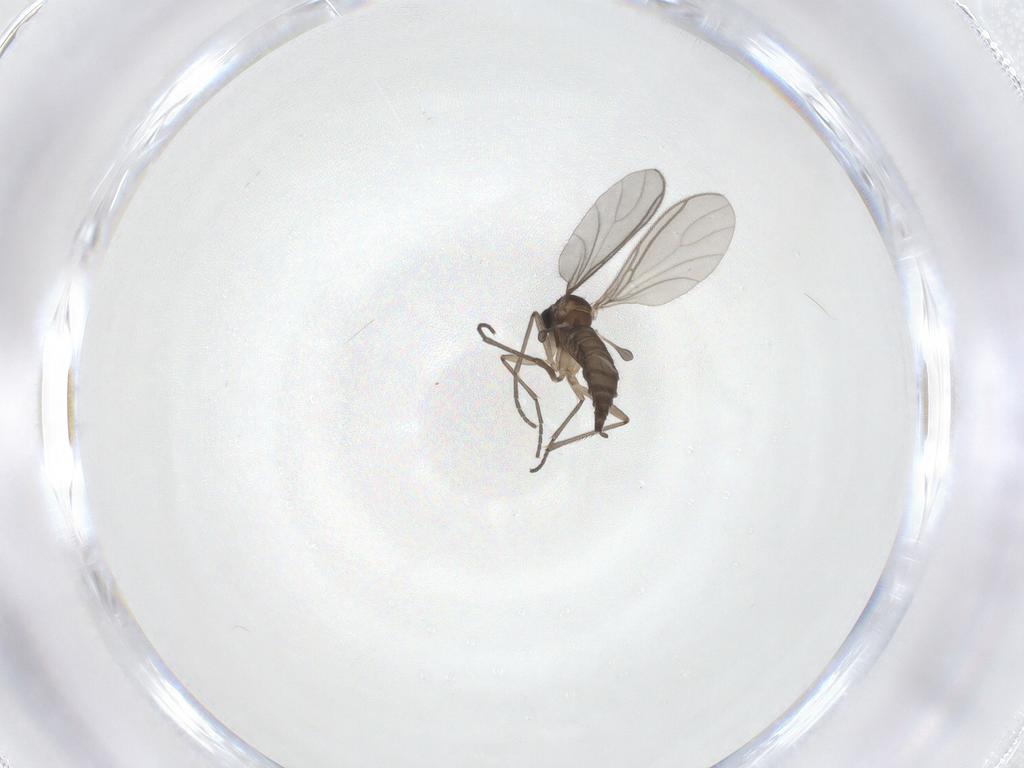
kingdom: Animalia
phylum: Arthropoda
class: Insecta
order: Diptera
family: Sciaridae
